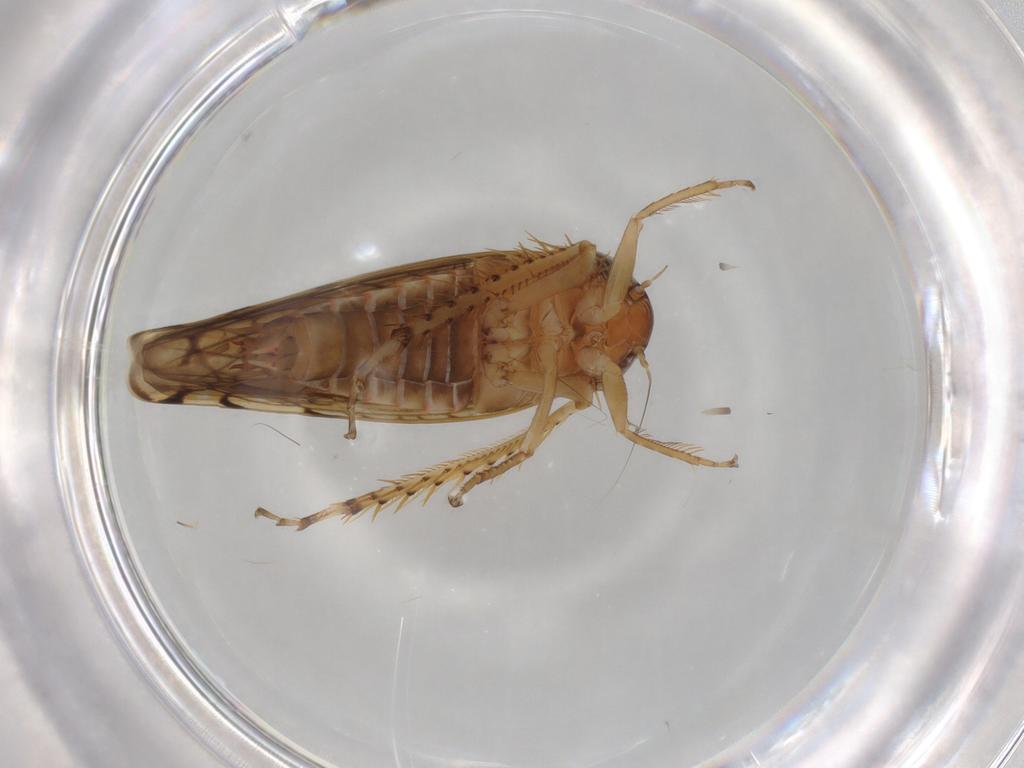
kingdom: Animalia
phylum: Arthropoda
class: Insecta
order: Hemiptera
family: Cicadellidae
